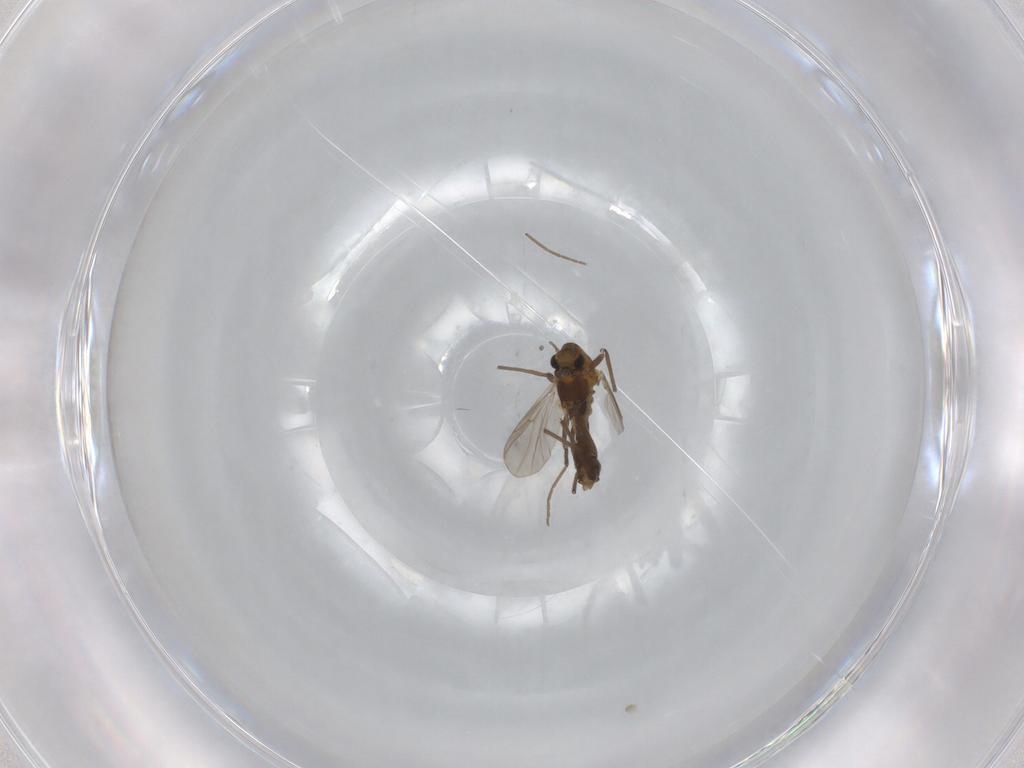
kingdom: Animalia
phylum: Arthropoda
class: Insecta
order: Diptera
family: Chironomidae
